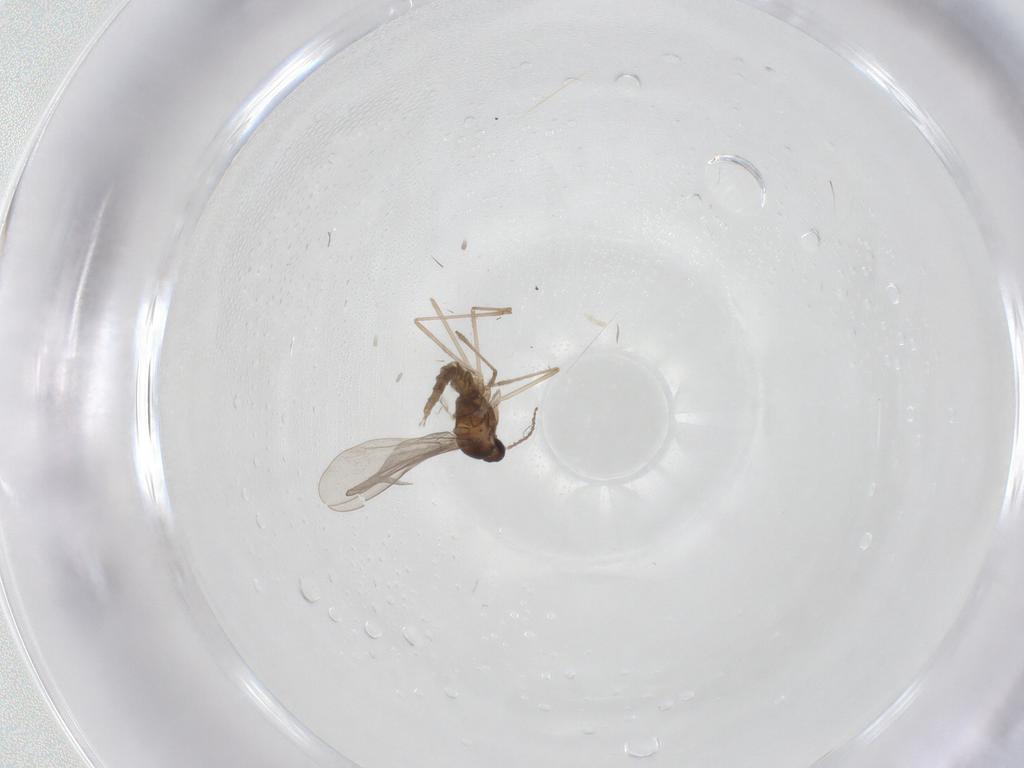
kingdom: Animalia
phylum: Arthropoda
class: Insecta
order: Diptera
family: Cecidomyiidae
